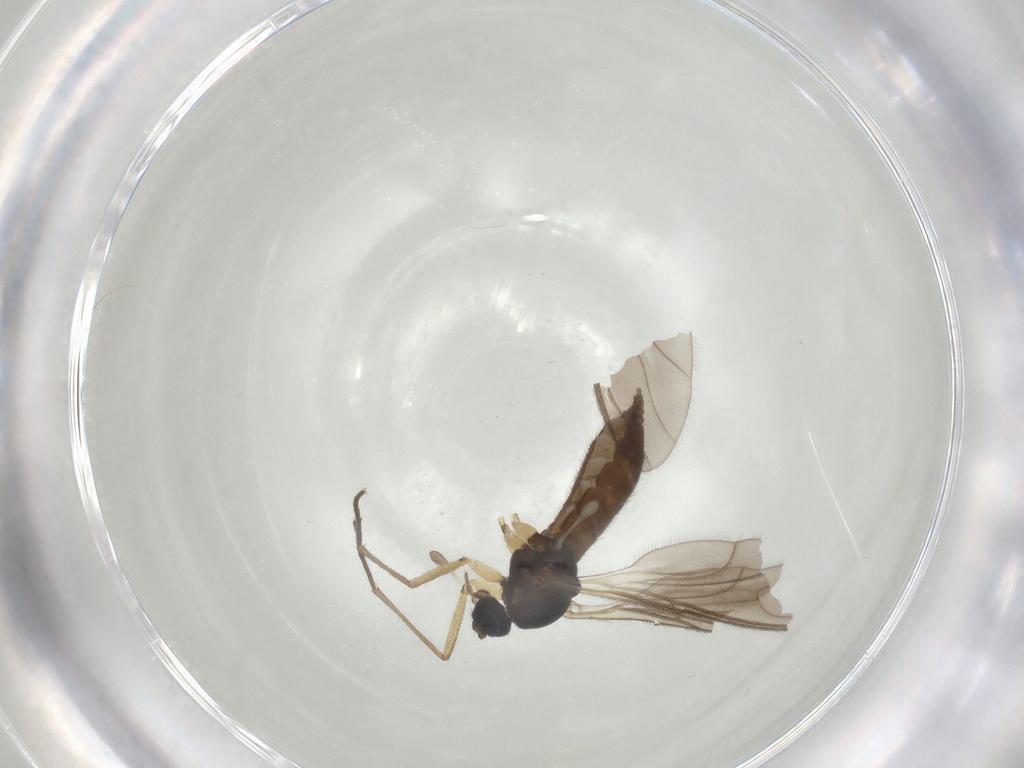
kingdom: Animalia
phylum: Arthropoda
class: Insecta
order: Diptera
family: Sciaridae
